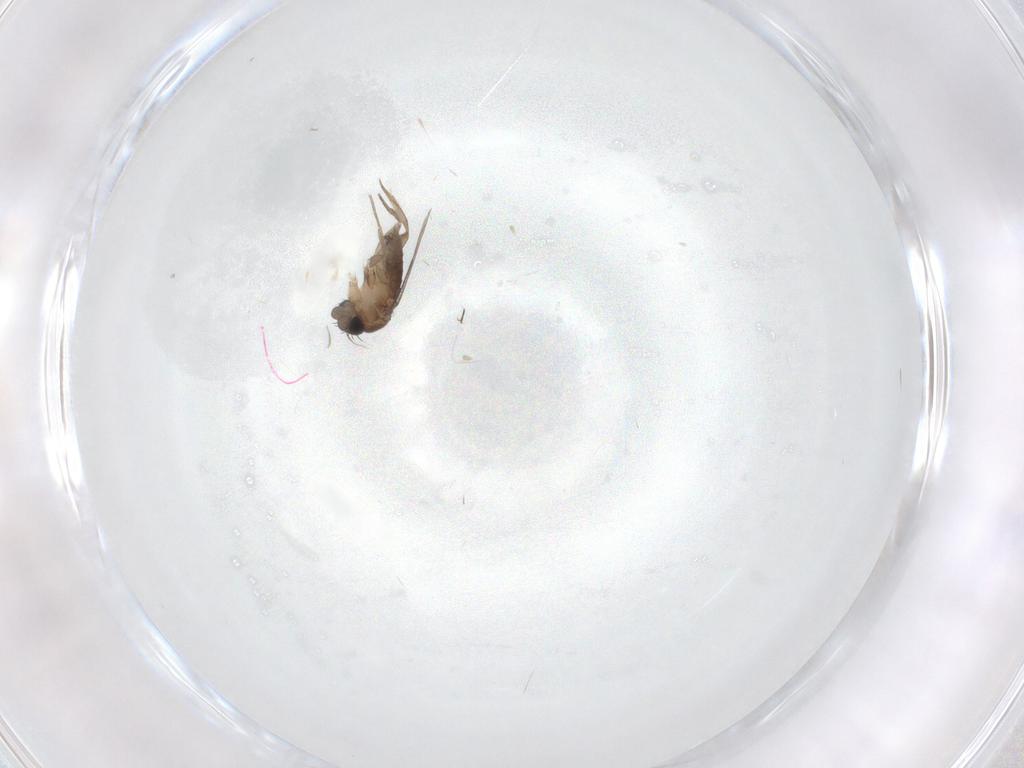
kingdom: Animalia
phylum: Arthropoda
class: Insecta
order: Diptera
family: Phoridae
